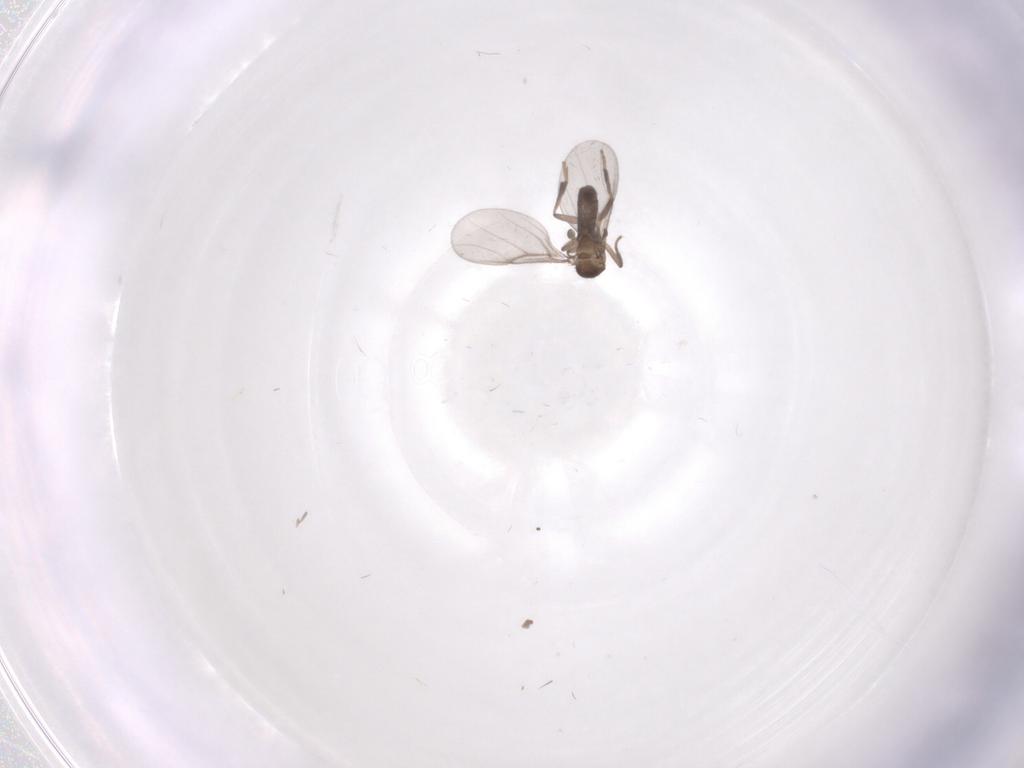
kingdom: Animalia
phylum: Arthropoda
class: Insecta
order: Diptera
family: Phoridae
